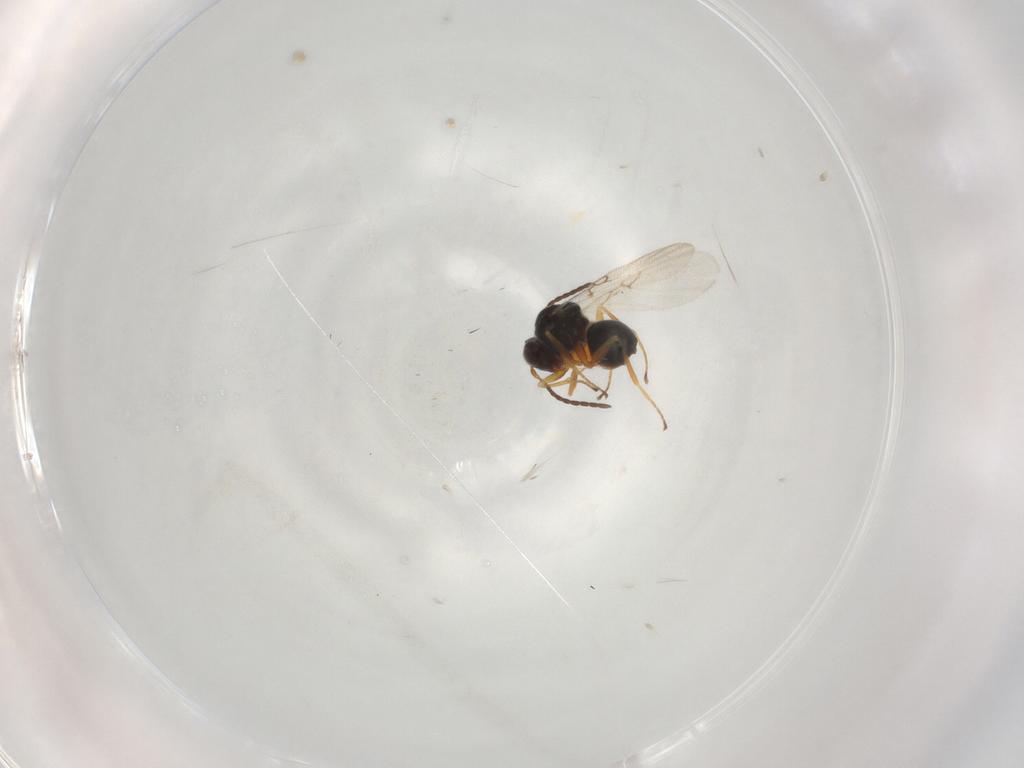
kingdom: Animalia
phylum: Arthropoda
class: Insecta
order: Hymenoptera
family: Figitidae
